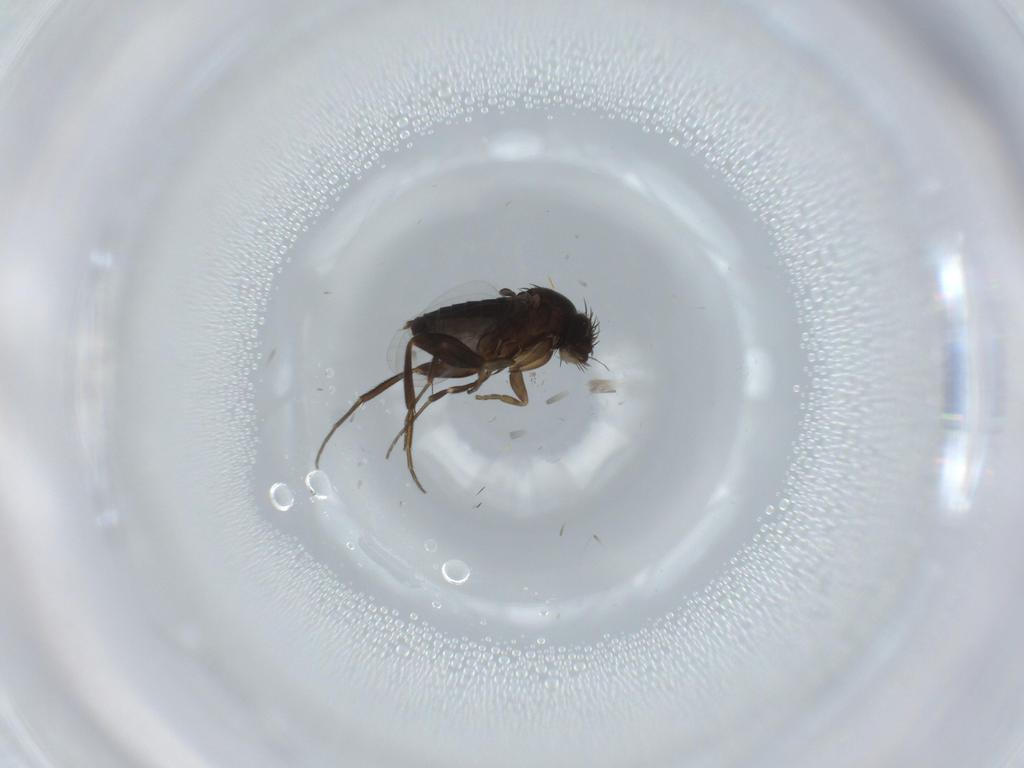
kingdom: Animalia
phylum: Arthropoda
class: Insecta
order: Diptera
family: Phoridae
